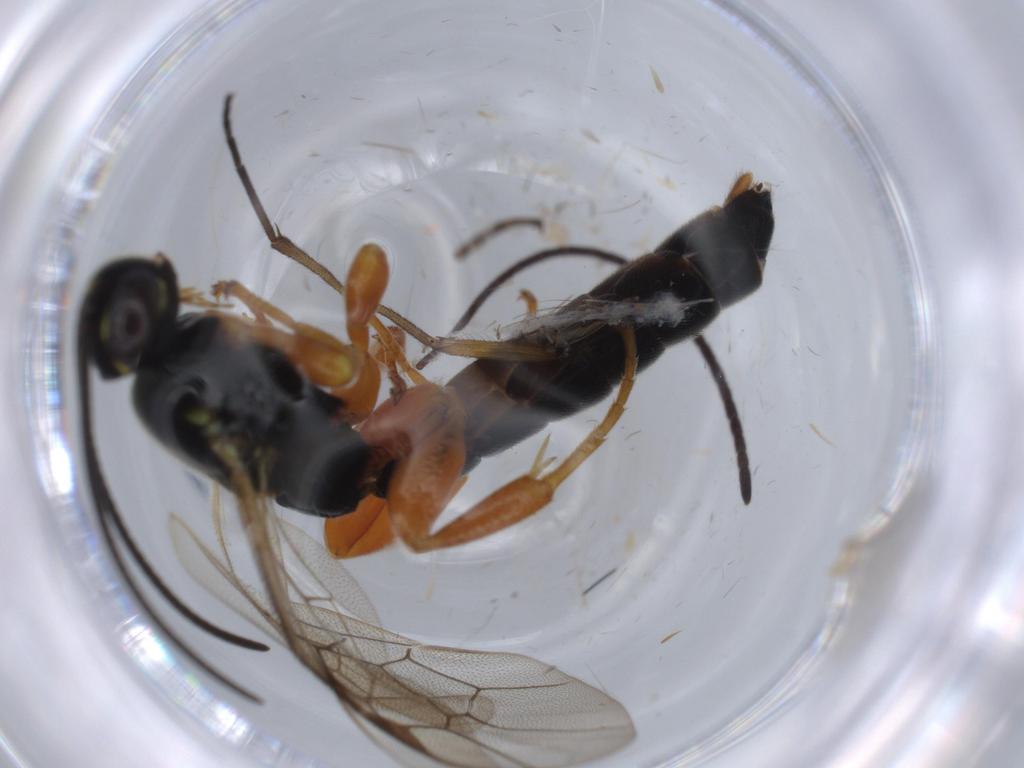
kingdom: Animalia
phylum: Arthropoda
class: Insecta
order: Hymenoptera
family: Ichneumonidae
